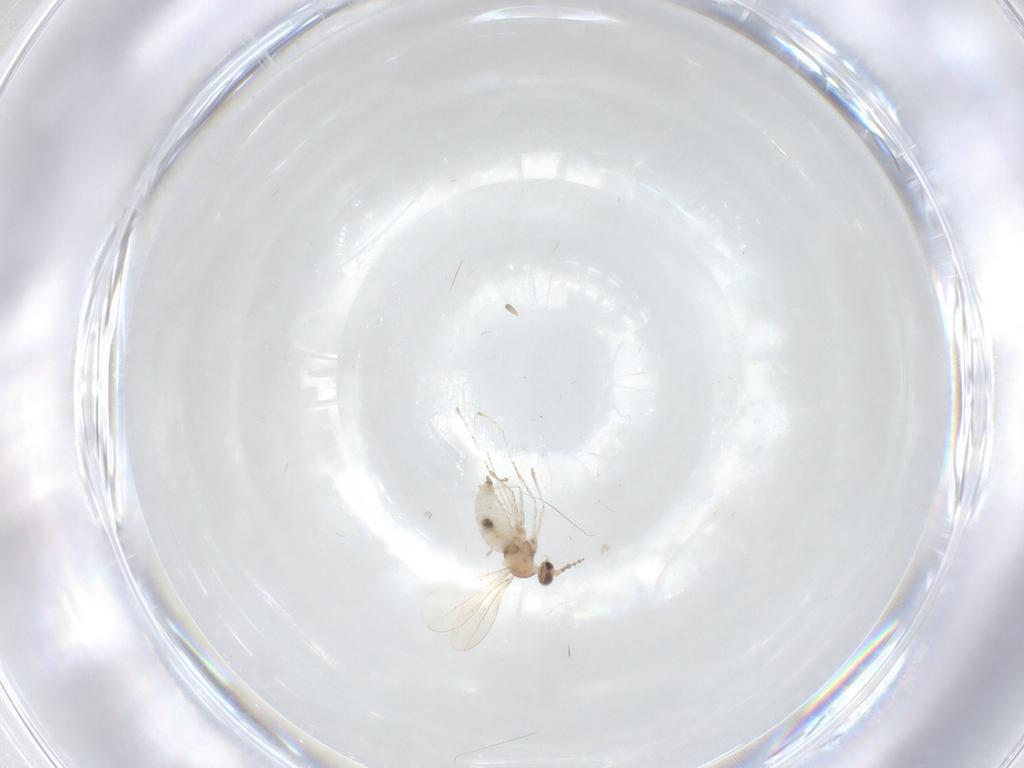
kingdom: Animalia
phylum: Arthropoda
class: Insecta
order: Diptera
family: Cecidomyiidae
